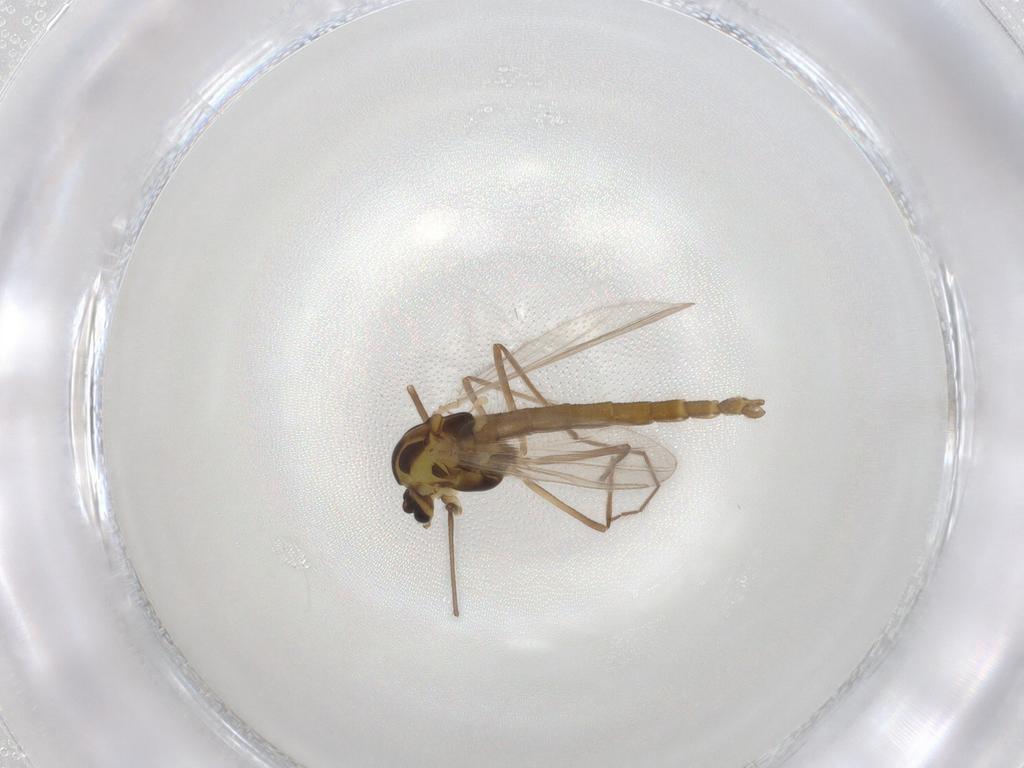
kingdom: Animalia
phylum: Arthropoda
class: Insecta
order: Diptera
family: Chironomidae
